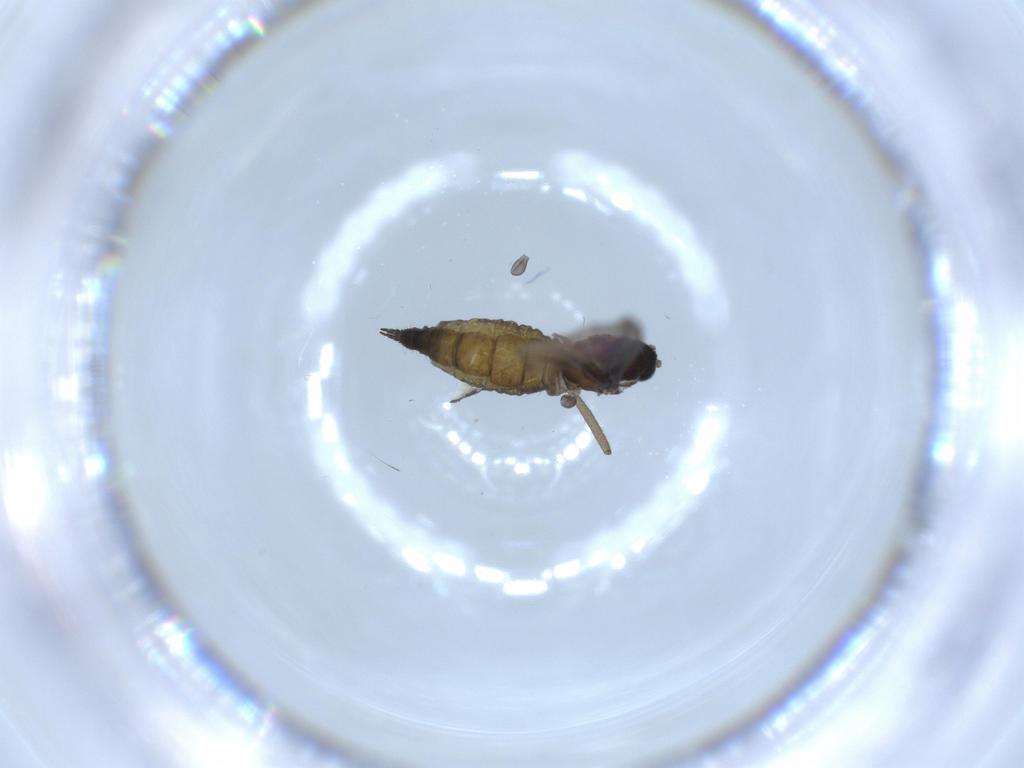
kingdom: Animalia
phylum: Arthropoda
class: Insecta
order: Diptera
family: Sciaridae
